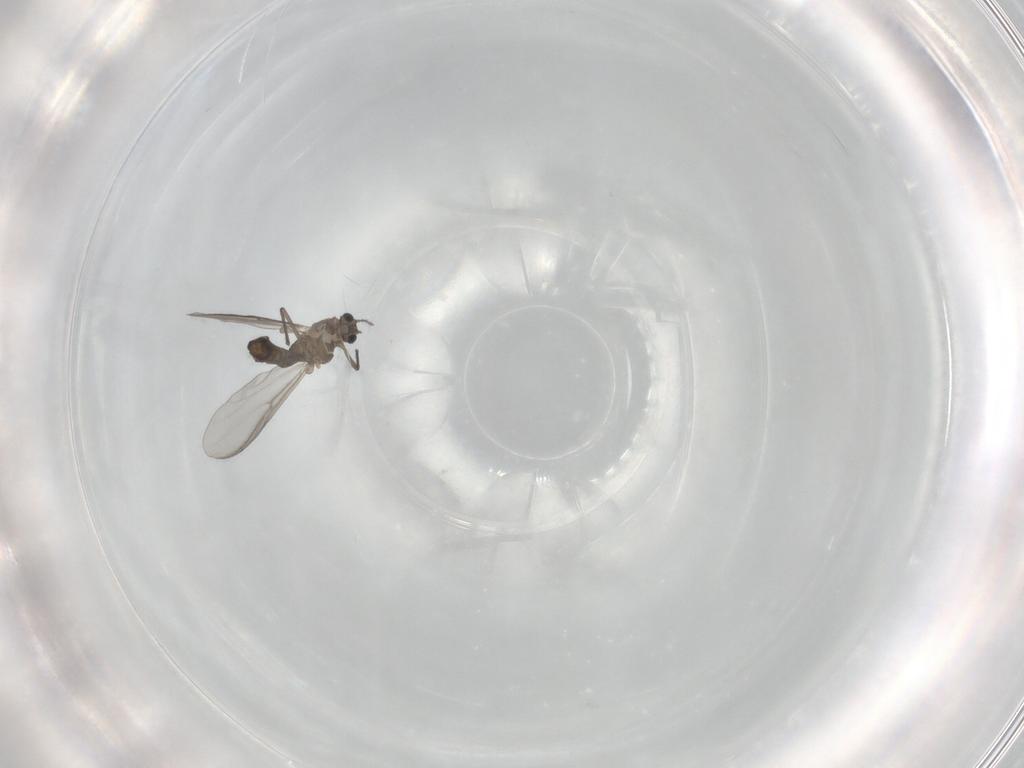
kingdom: Animalia
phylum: Arthropoda
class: Insecta
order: Diptera
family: Chironomidae
